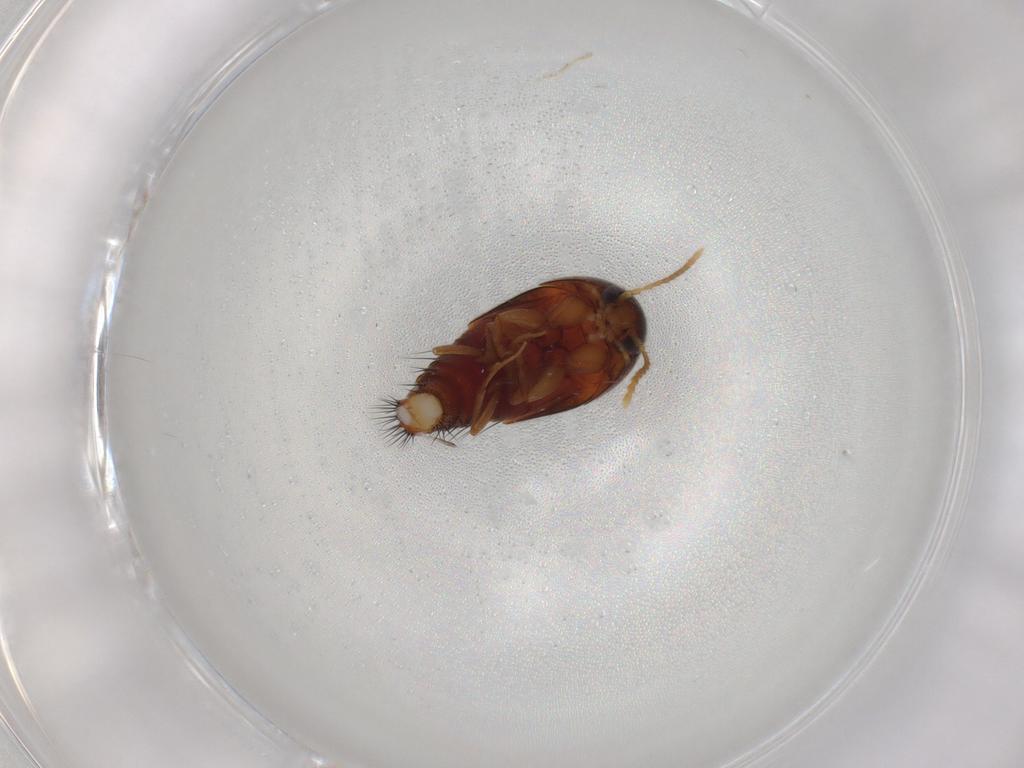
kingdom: Animalia
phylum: Arthropoda
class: Insecta
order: Coleoptera
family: Staphylinidae
